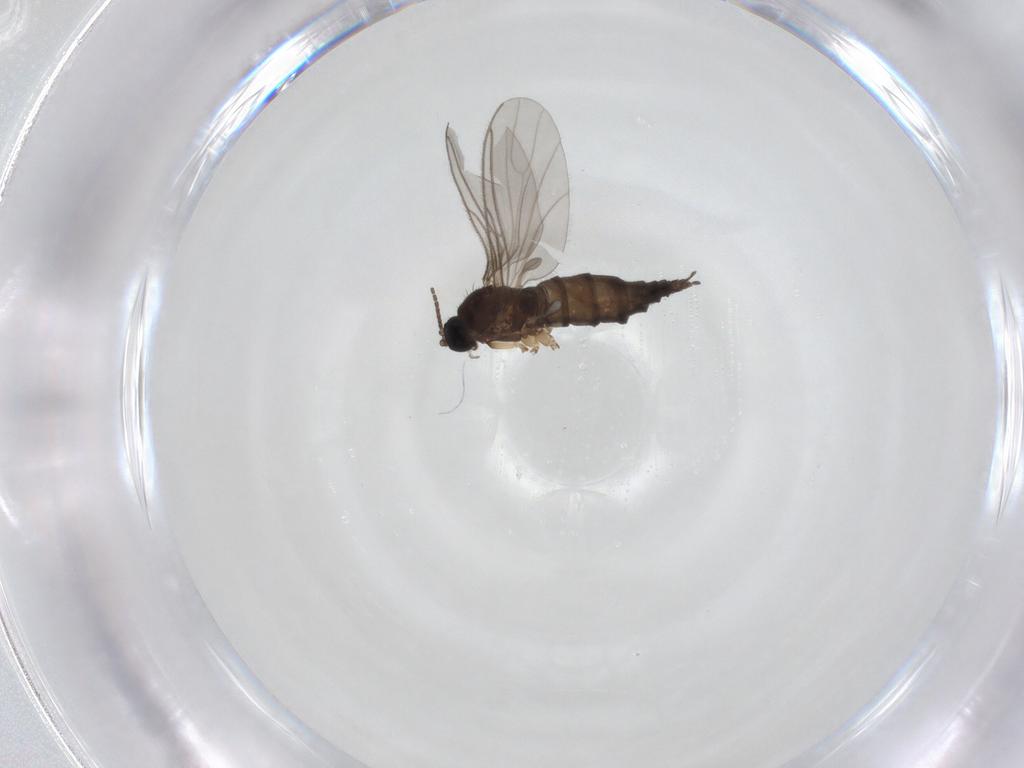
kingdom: Animalia
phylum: Arthropoda
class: Insecta
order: Diptera
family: Sciaridae
